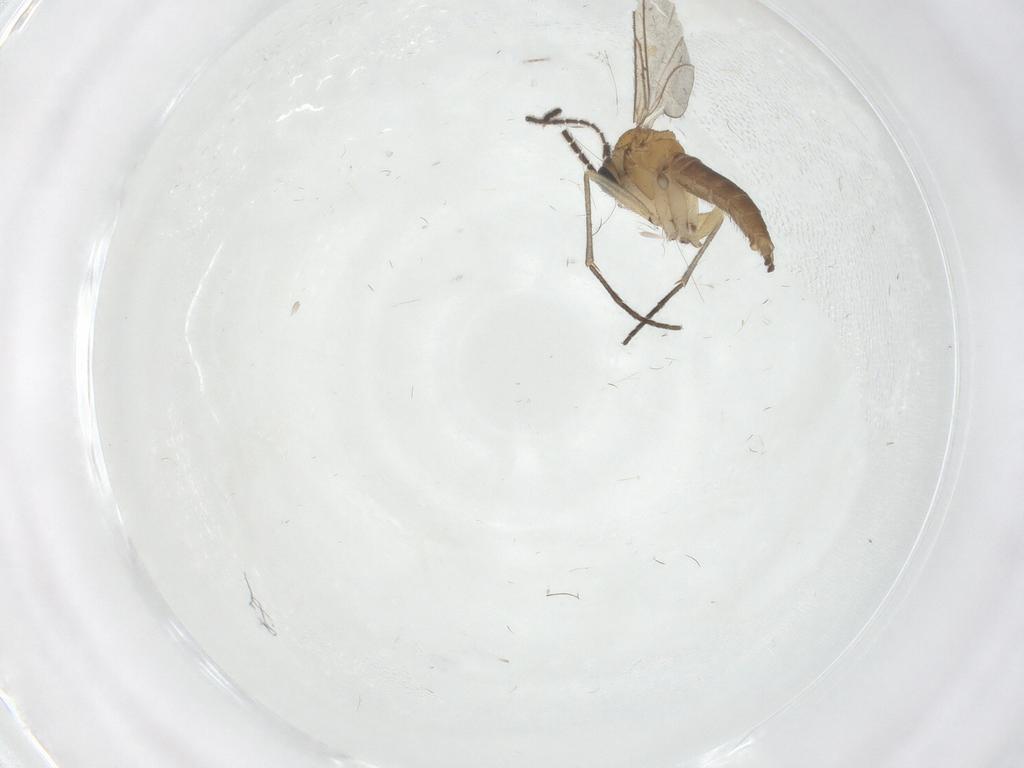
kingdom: Animalia
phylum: Arthropoda
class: Insecta
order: Diptera
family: Sciaridae
